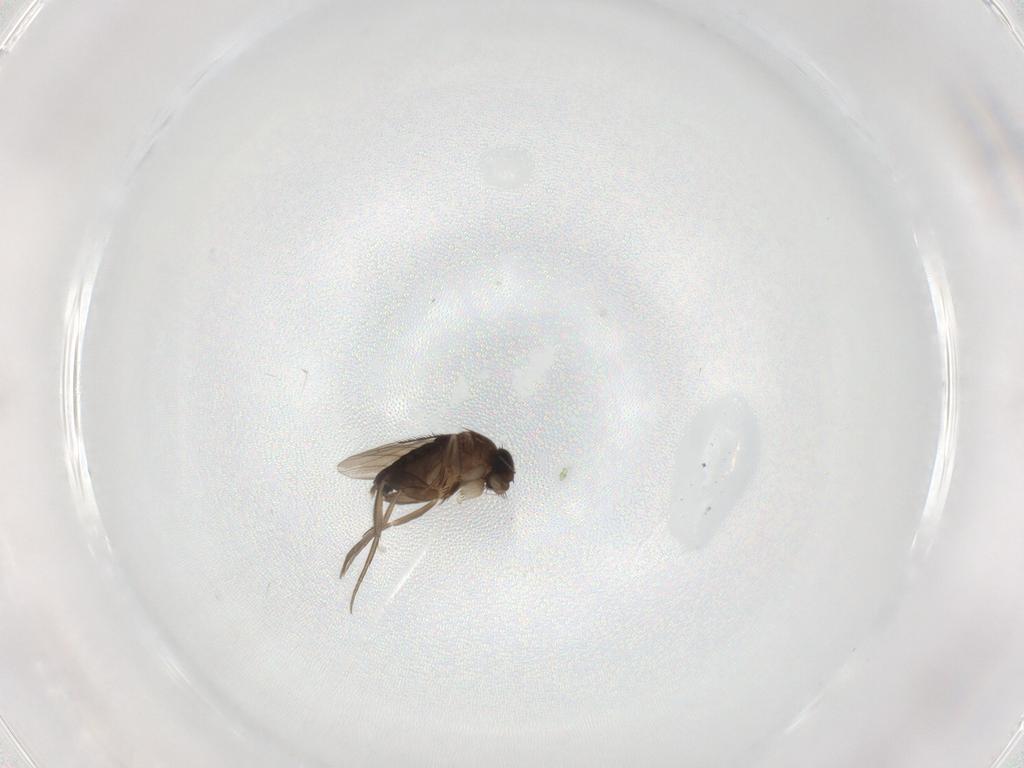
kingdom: Animalia
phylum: Arthropoda
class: Insecta
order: Diptera
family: Phoridae
